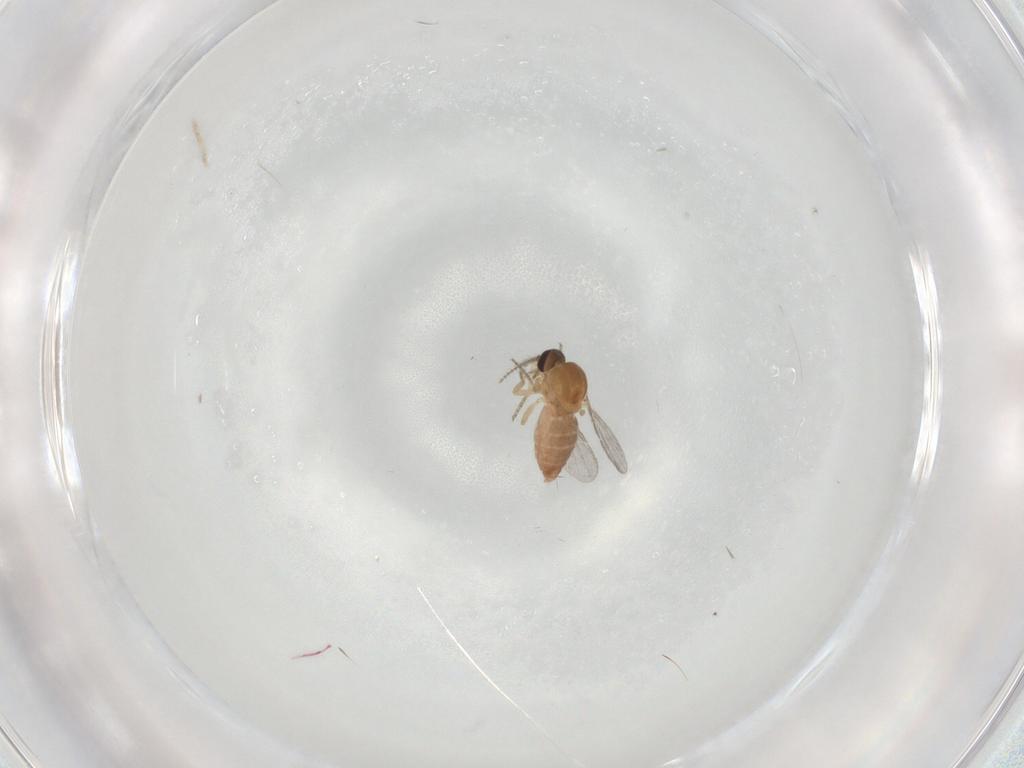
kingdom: Animalia
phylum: Arthropoda
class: Insecta
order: Diptera
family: Ceratopogonidae
